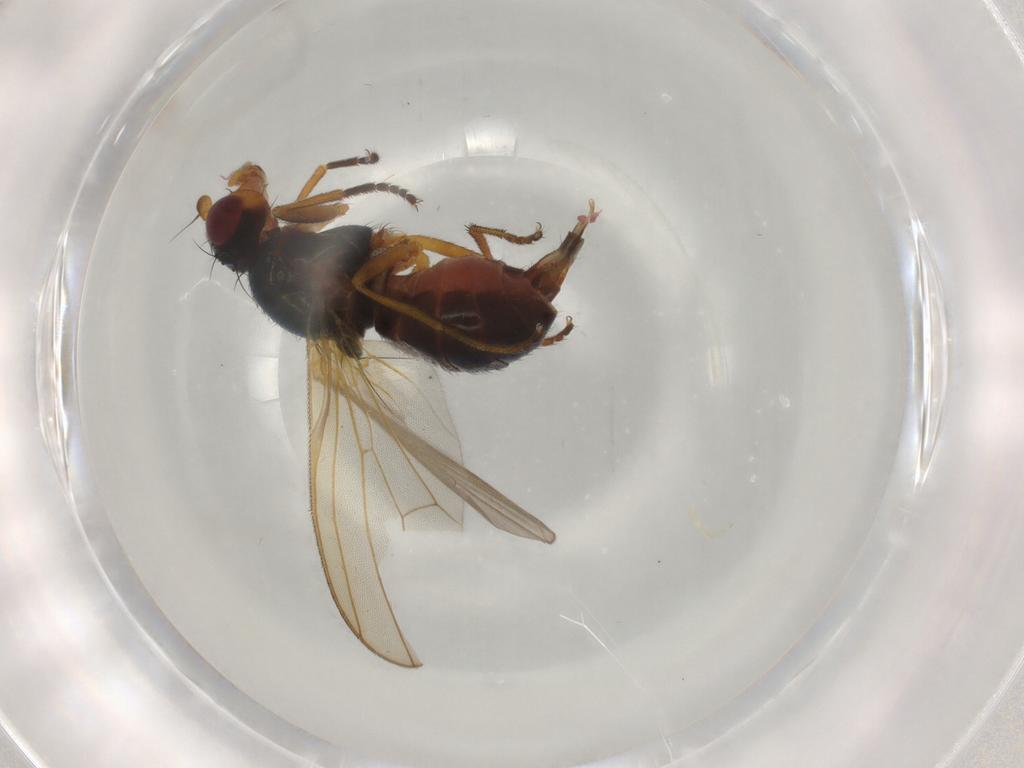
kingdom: Animalia
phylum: Arthropoda
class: Insecta
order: Diptera
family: Piophilidae
